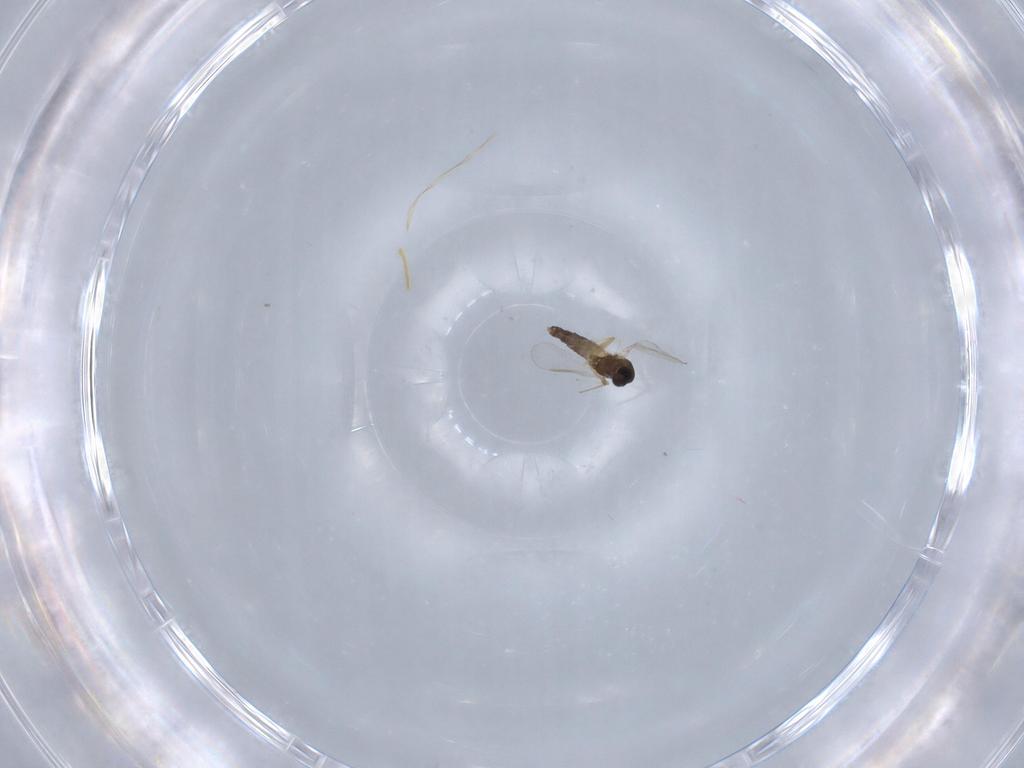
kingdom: Animalia
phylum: Arthropoda
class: Insecta
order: Diptera
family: Chironomidae
